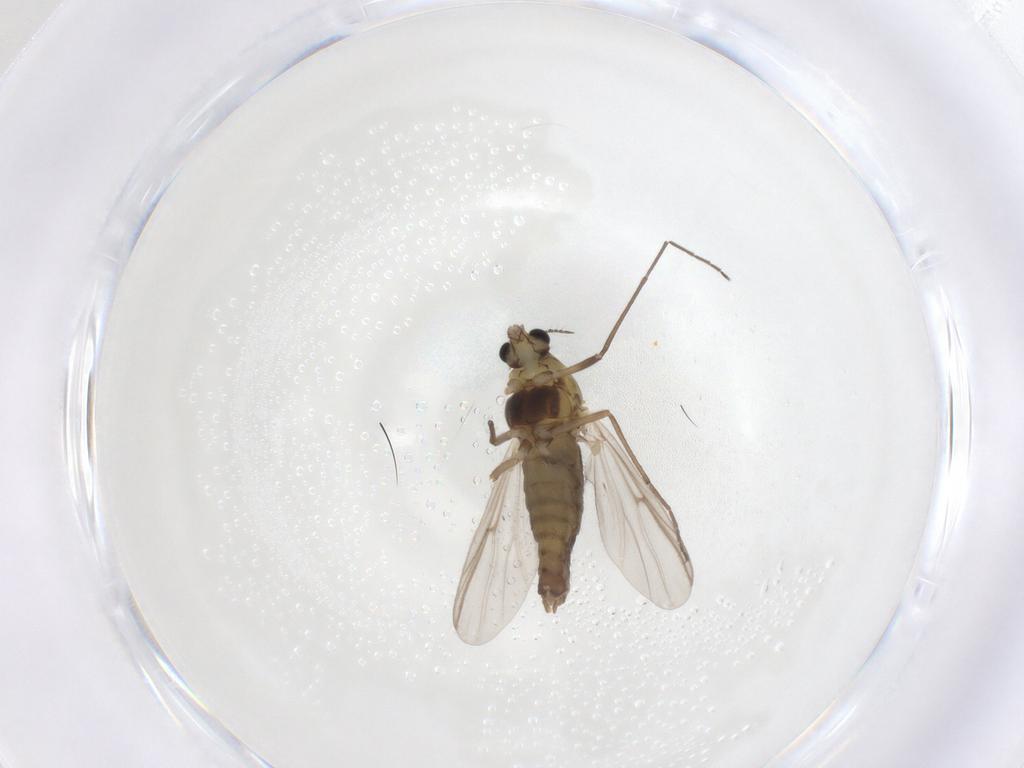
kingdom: Animalia
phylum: Arthropoda
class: Insecta
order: Diptera
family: Chironomidae
